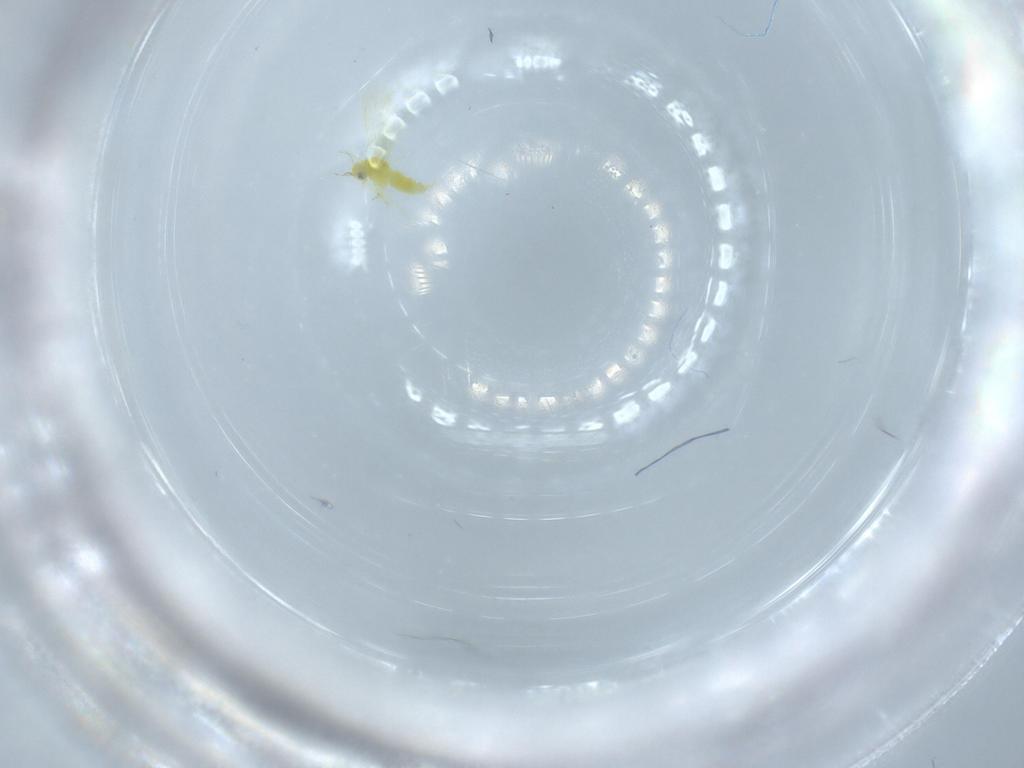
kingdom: Animalia
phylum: Arthropoda
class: Insecta
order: Hemiptera
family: Aleyrodidae
